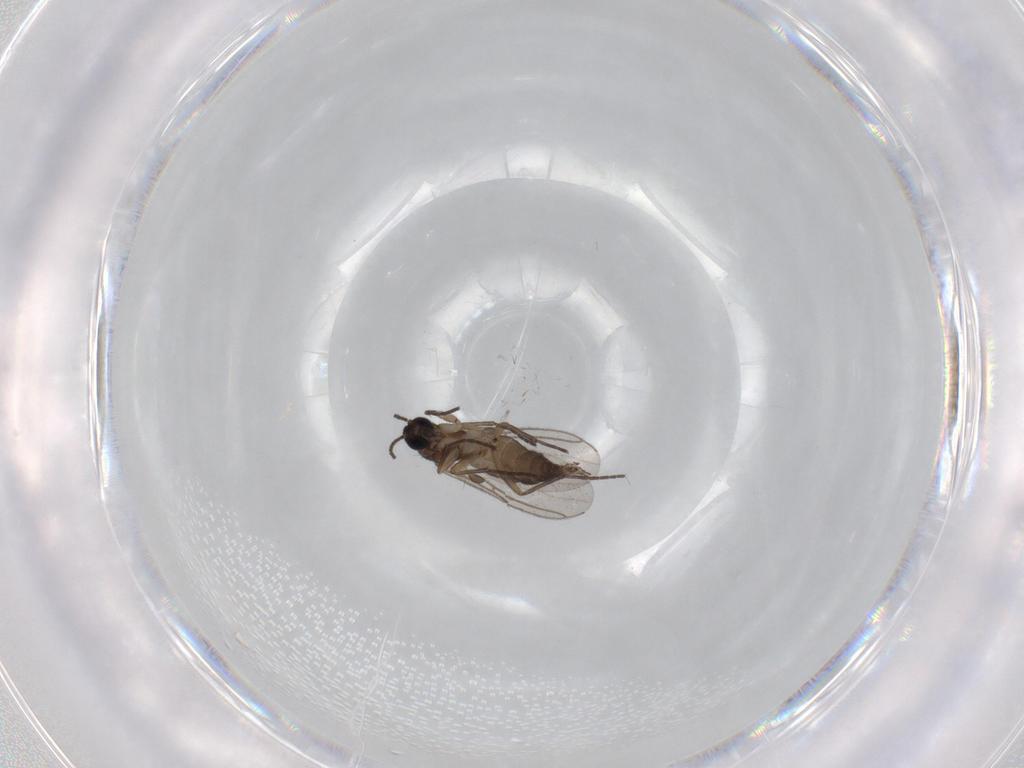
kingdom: Animalia
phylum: Arthropoda
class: Insecta
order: Diptera
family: Sciaridae
